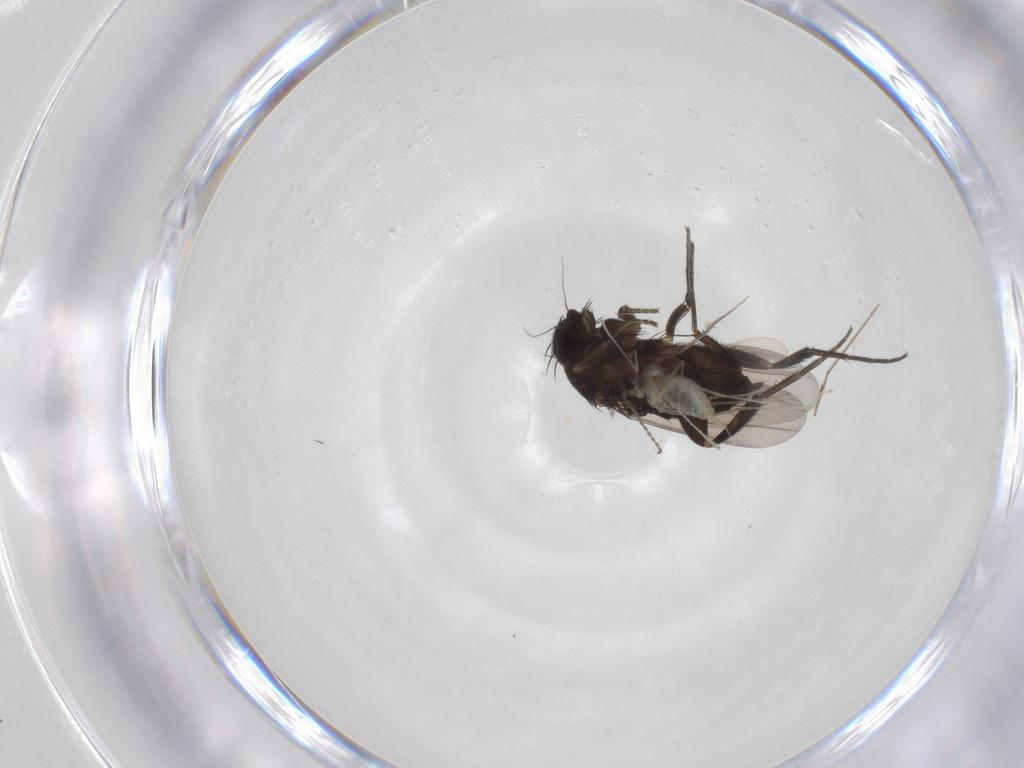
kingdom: Animalia
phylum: Arthropoda
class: Insecta
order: Diptera
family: Cecidomyiidae
